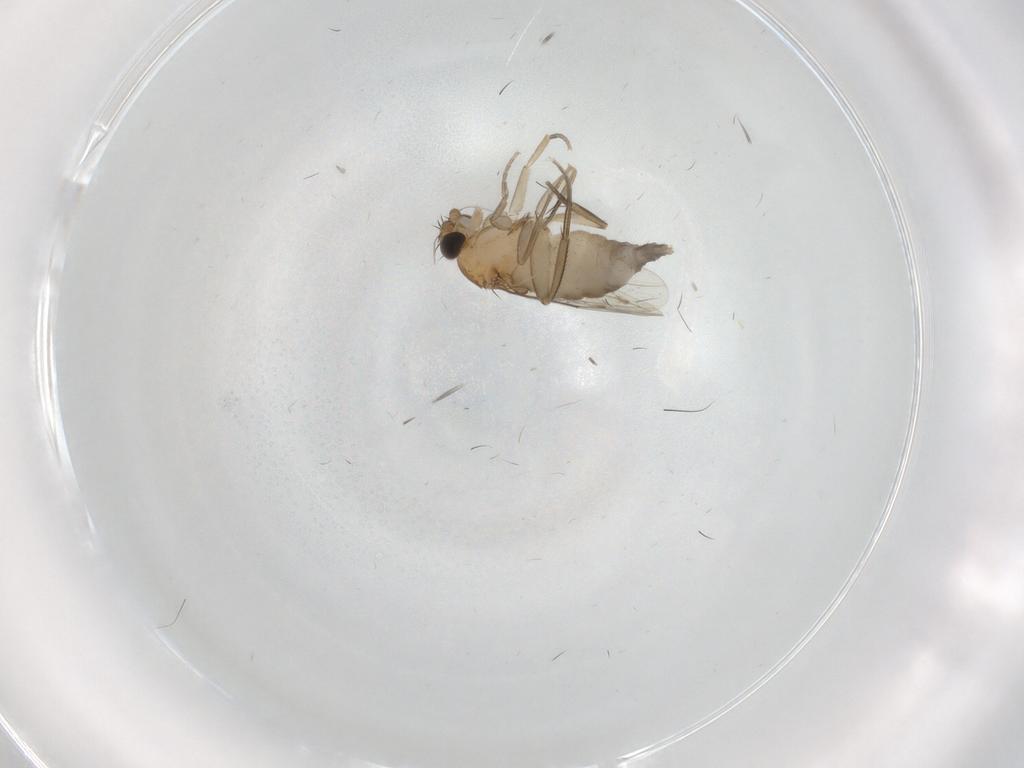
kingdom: Animalia
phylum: Arthropoda
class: Insecta
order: Diptera
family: Phoridae
